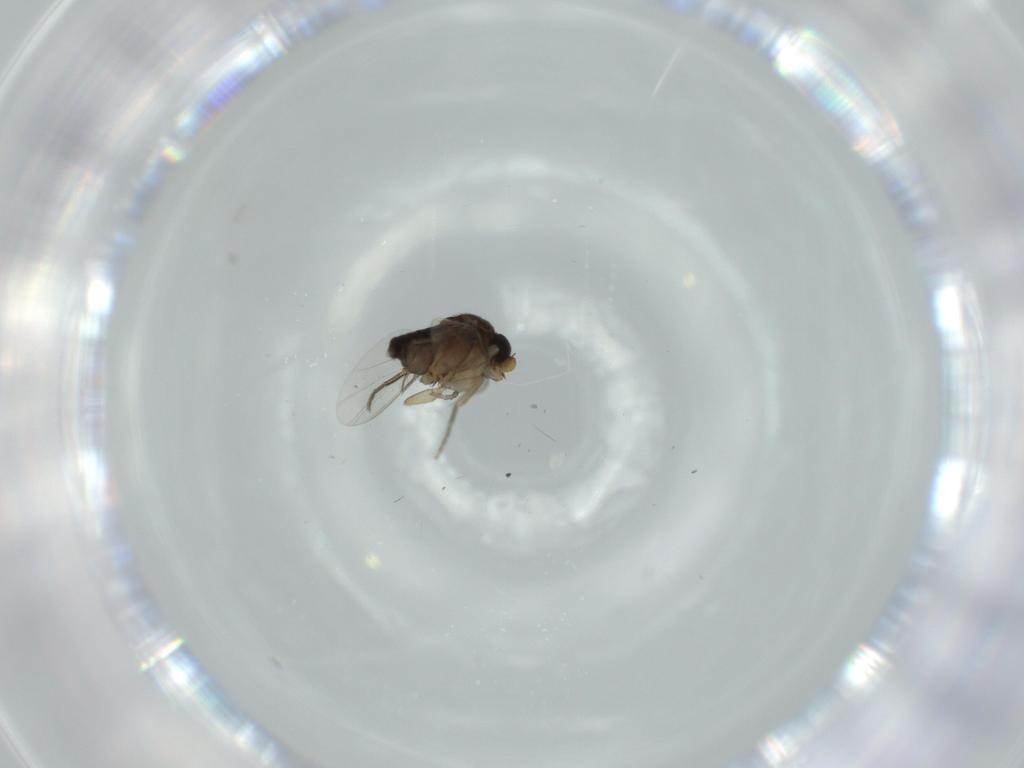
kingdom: Animalia
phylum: Arthropoda
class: Insecta
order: Diptera
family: Phoridae
